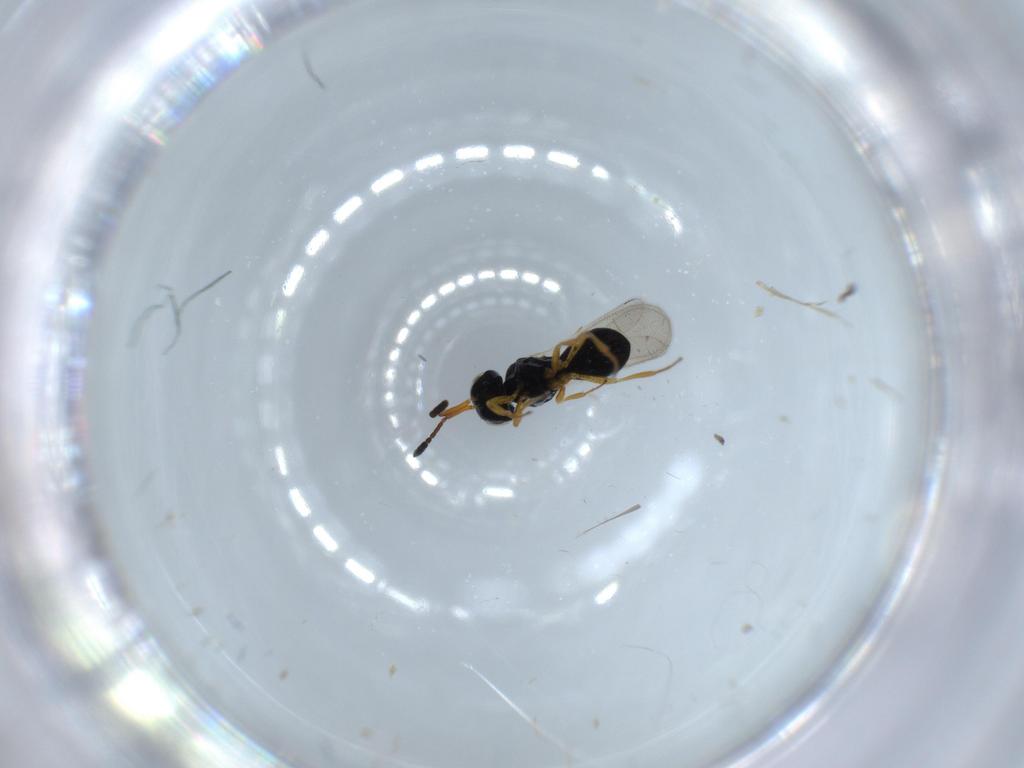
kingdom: Animalia
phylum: Arthropoda
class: Insecta
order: Hymenoptera
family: Scelionidae
